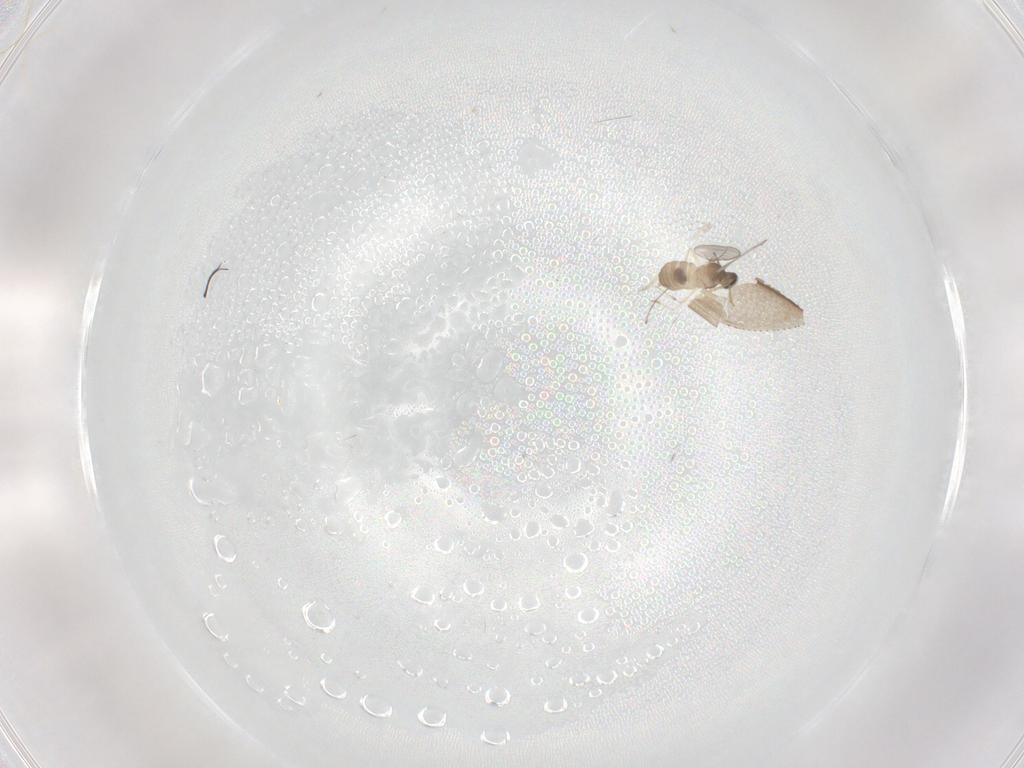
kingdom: Animalia
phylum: Arthropoda
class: Insecta
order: Diptera
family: Cecidomyiidae
